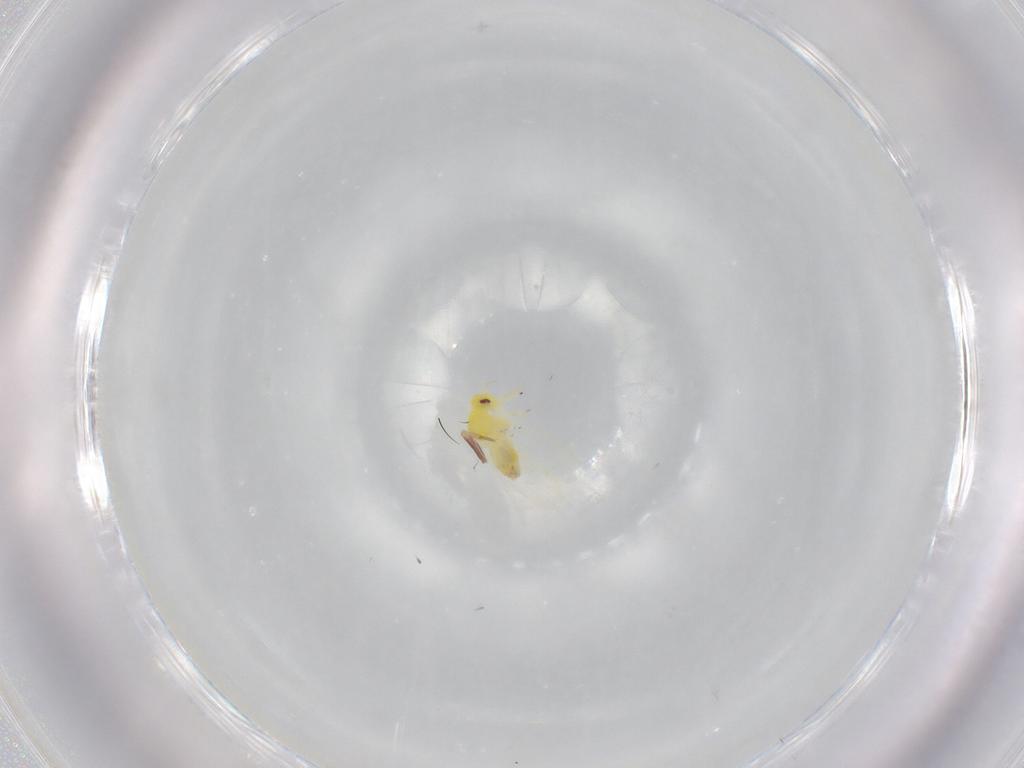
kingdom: Animalia
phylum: Arthropoda
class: Insecta
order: Hemiptera
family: Aleyrodidae
